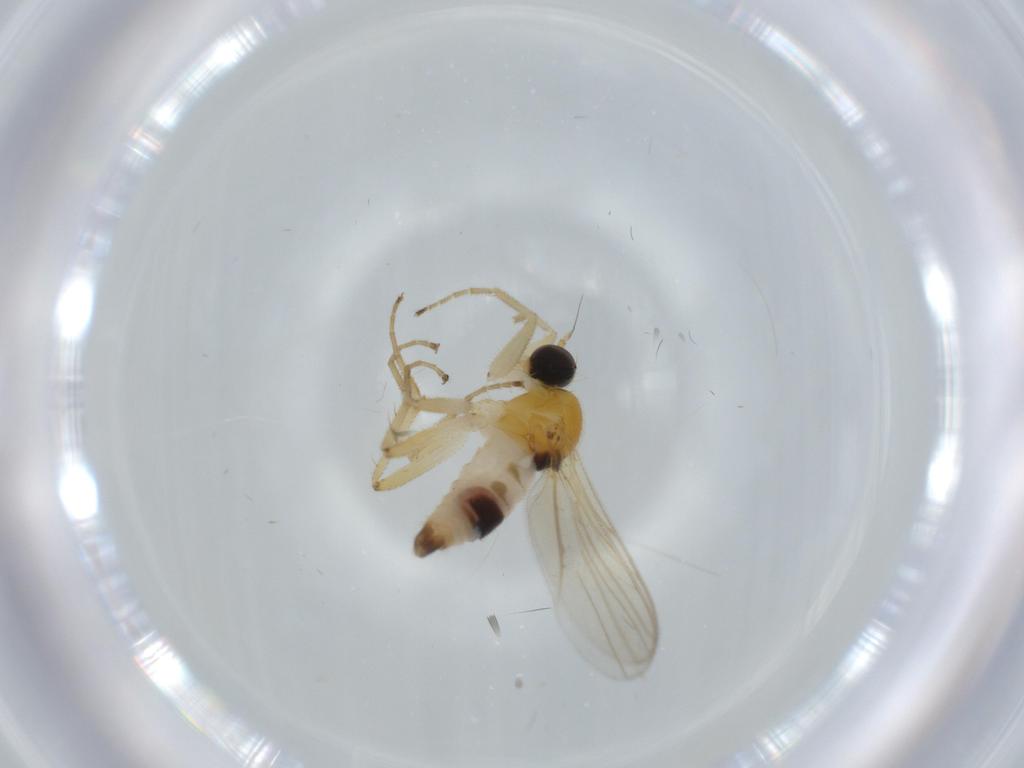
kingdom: Animalia
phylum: Arthropoda
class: Insecta
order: Diptera
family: Hybotidae
